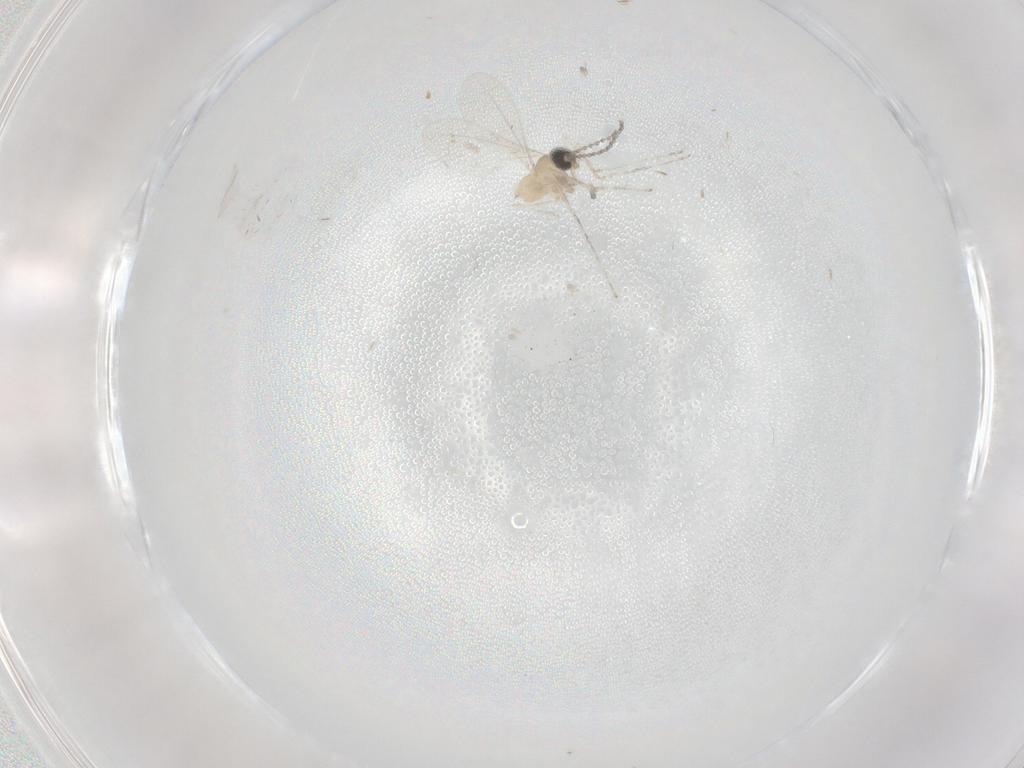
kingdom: Animalia
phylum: Arthropoda
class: Insecta
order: Diptera
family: Cecidomyiidae
